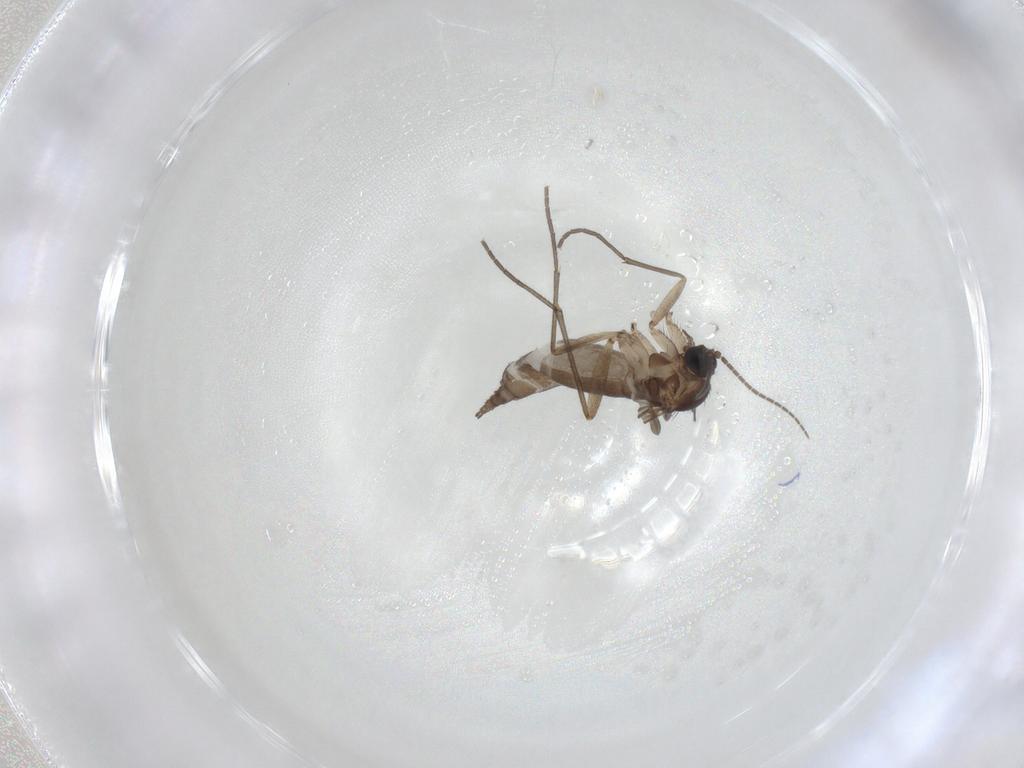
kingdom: Animalia
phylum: Arthropoda
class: Insecta
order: Diptera
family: Sciaridae
